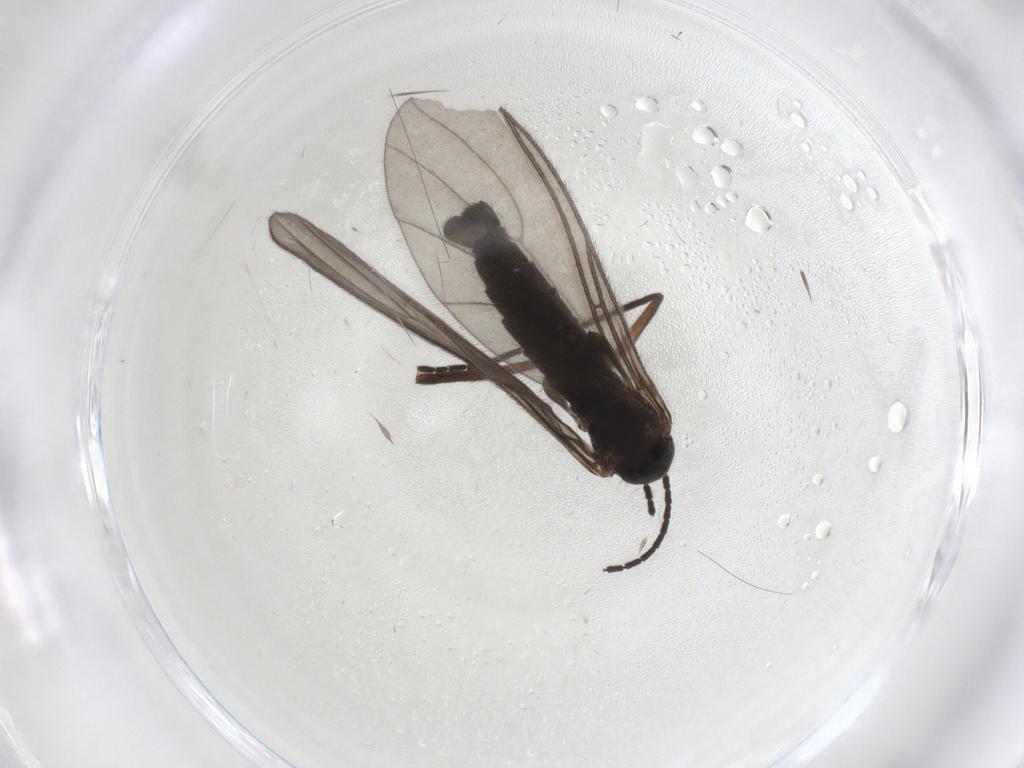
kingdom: Animalia
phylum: Arthropoda
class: Insecta
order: Diptera
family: Sciaridae
